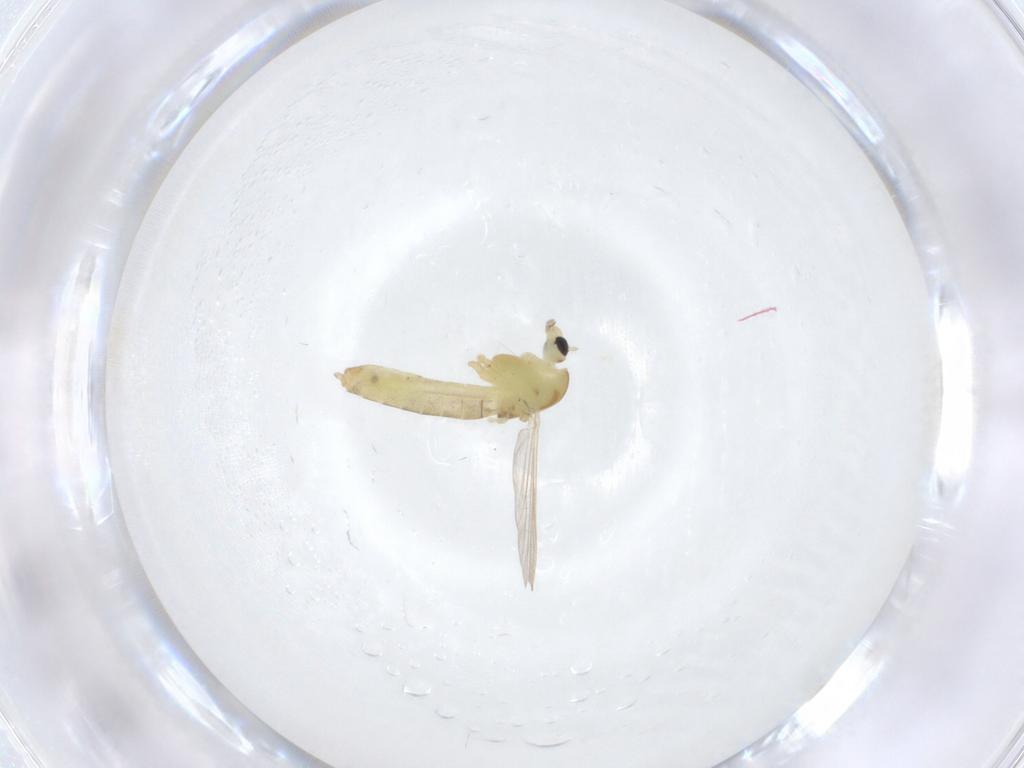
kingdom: Animalia
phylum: Arthropoda
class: Insecta
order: Diptera
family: Chironomidae
